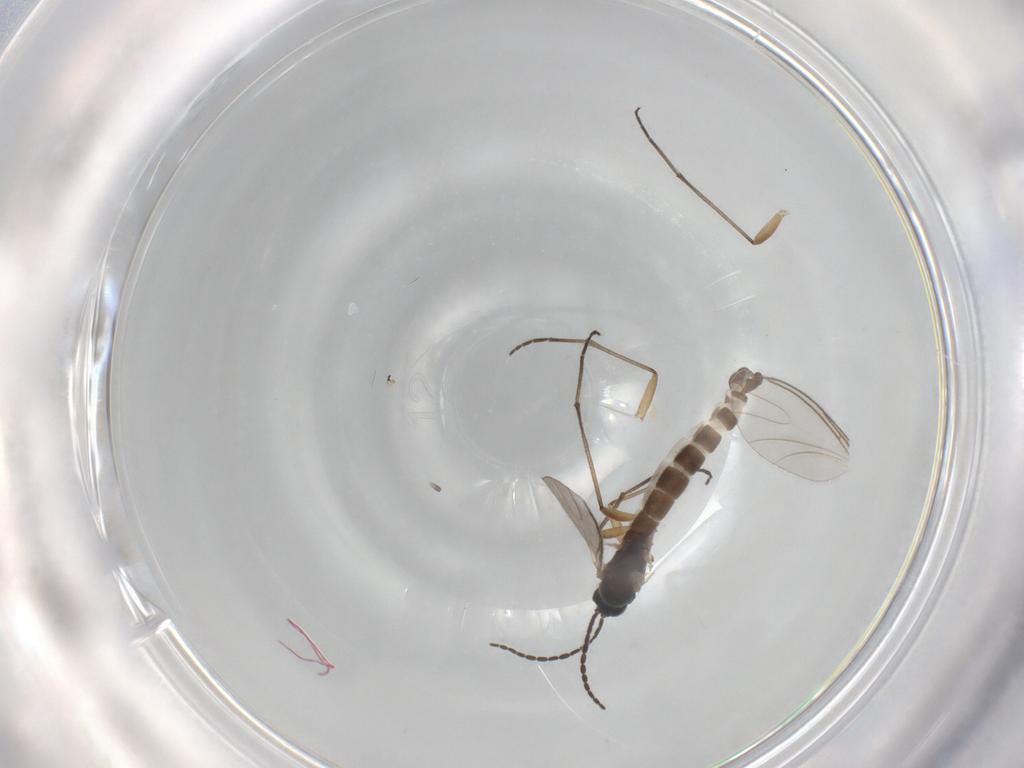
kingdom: Animalia
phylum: Arthropoda
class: Insecta
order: Diptera
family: Sciaridae
